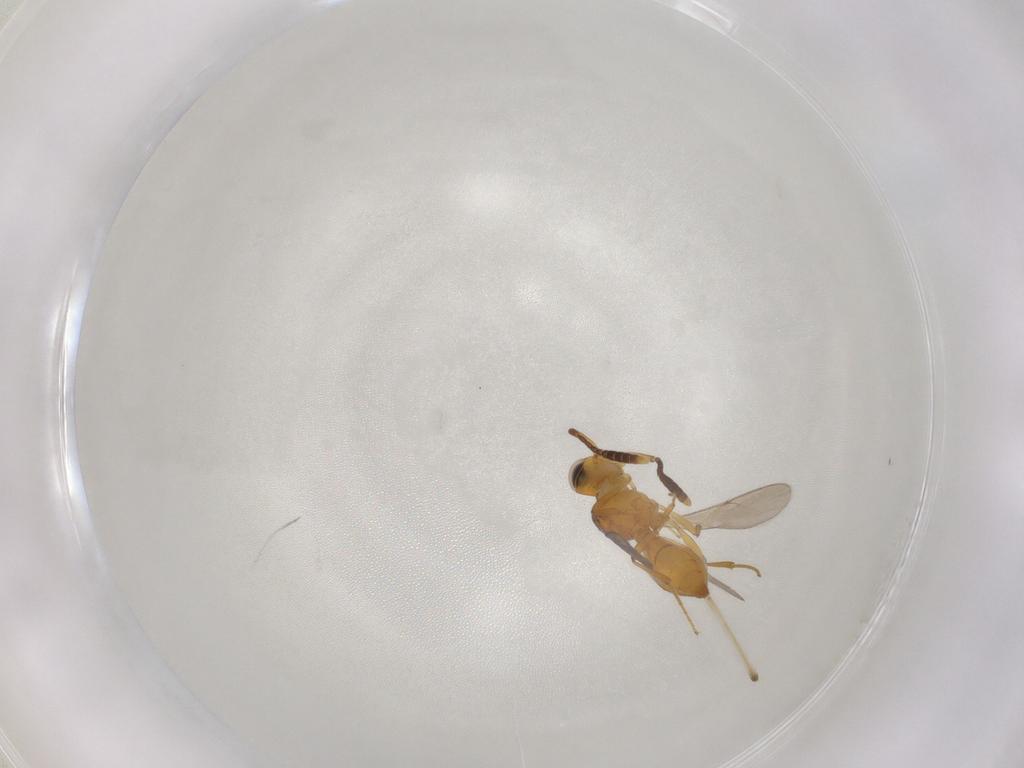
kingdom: Animalia
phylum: Arthropoda
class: Insecta
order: Hymenoptera
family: Scelionidae
